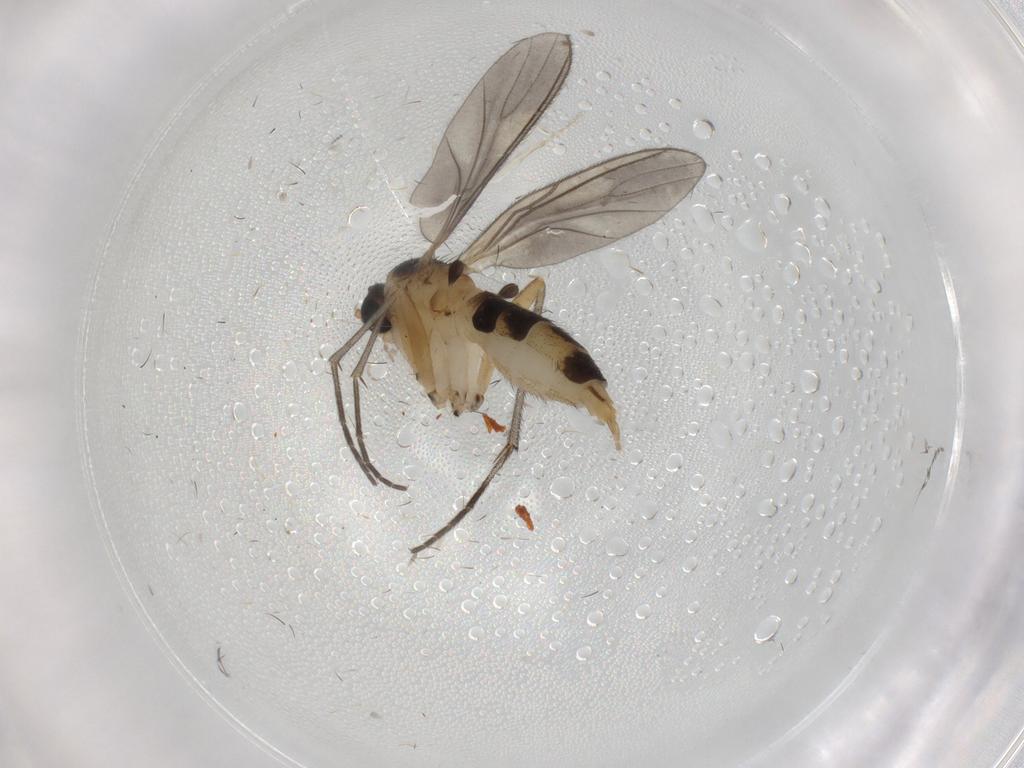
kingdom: Animalia
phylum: Arthropoda
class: Insecta
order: Diptera
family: Sciaridae
